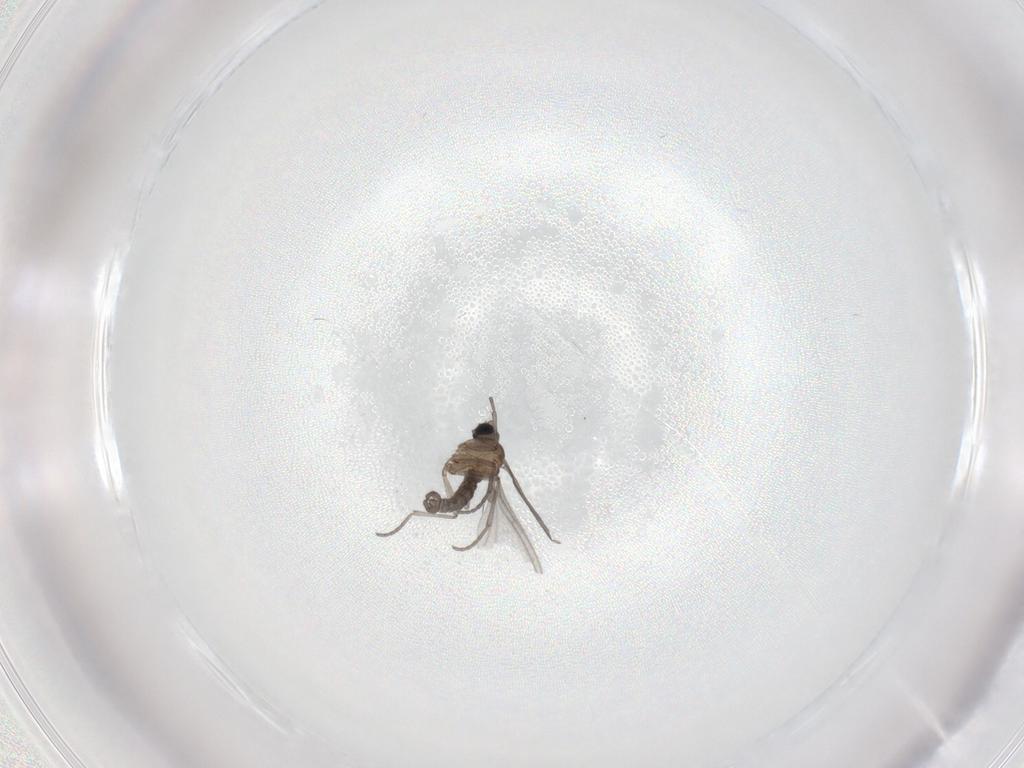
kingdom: Animalia
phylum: Arthropoda
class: Insecta
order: Diptera
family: Sciaridae
